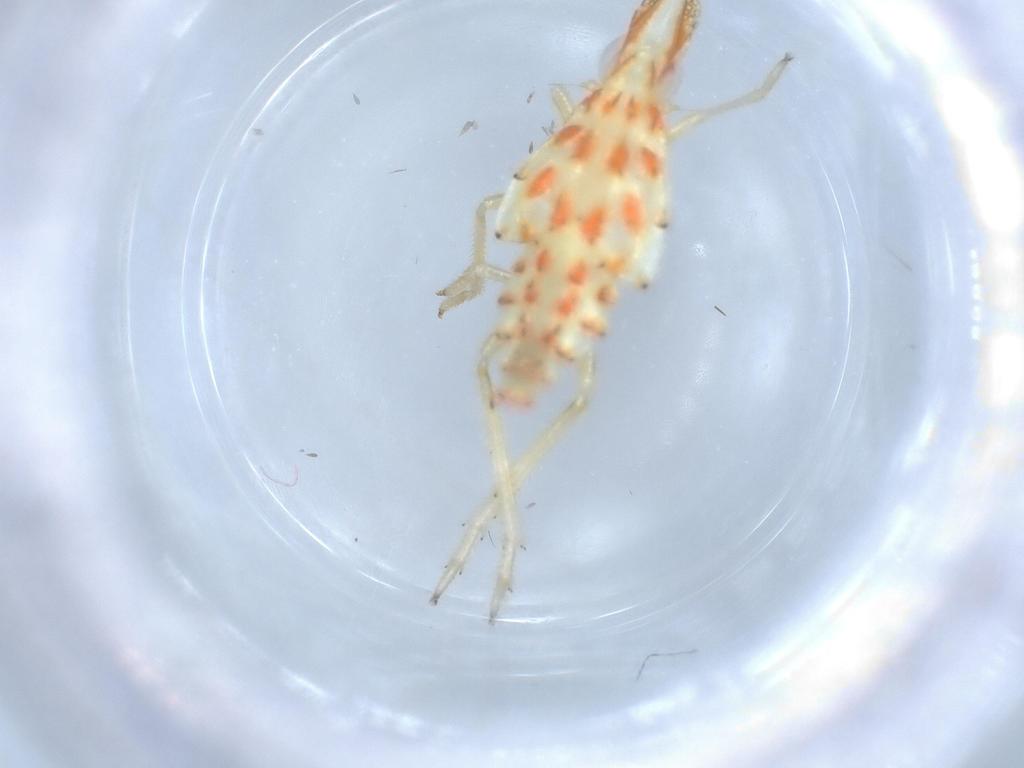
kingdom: Animalia
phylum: Arthropoda
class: Insecta
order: Hemiptera
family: Tropiduchidae
